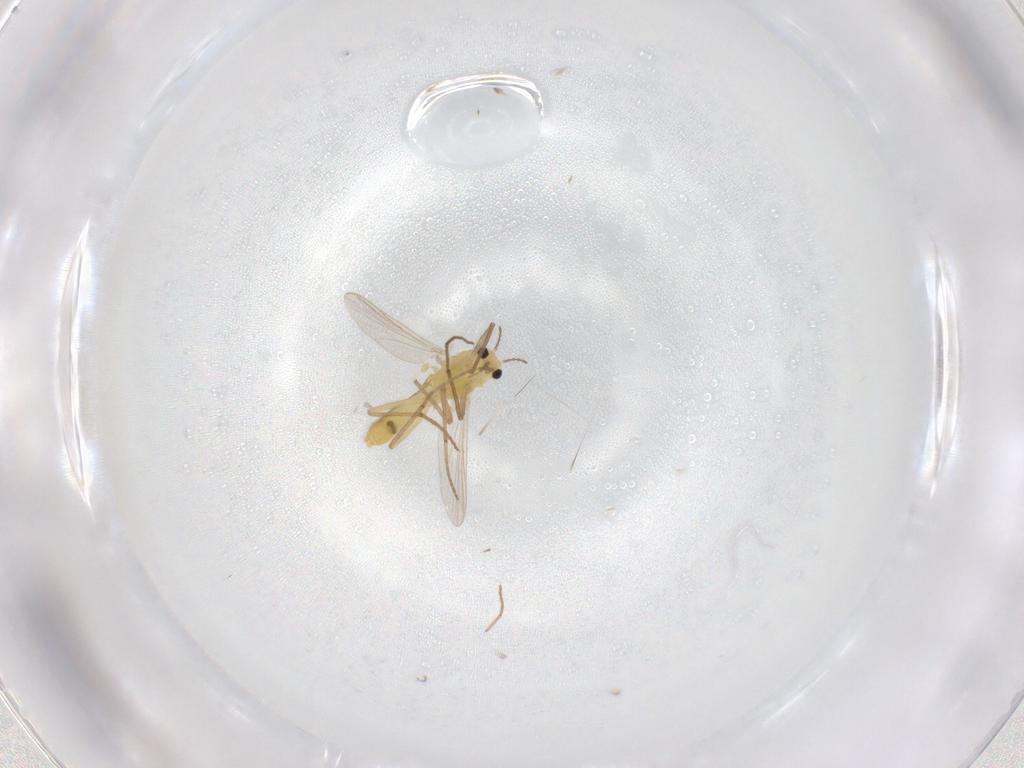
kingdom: Animalia
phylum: Arthropoda
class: Insecta
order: Diptera
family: Chironomidae
